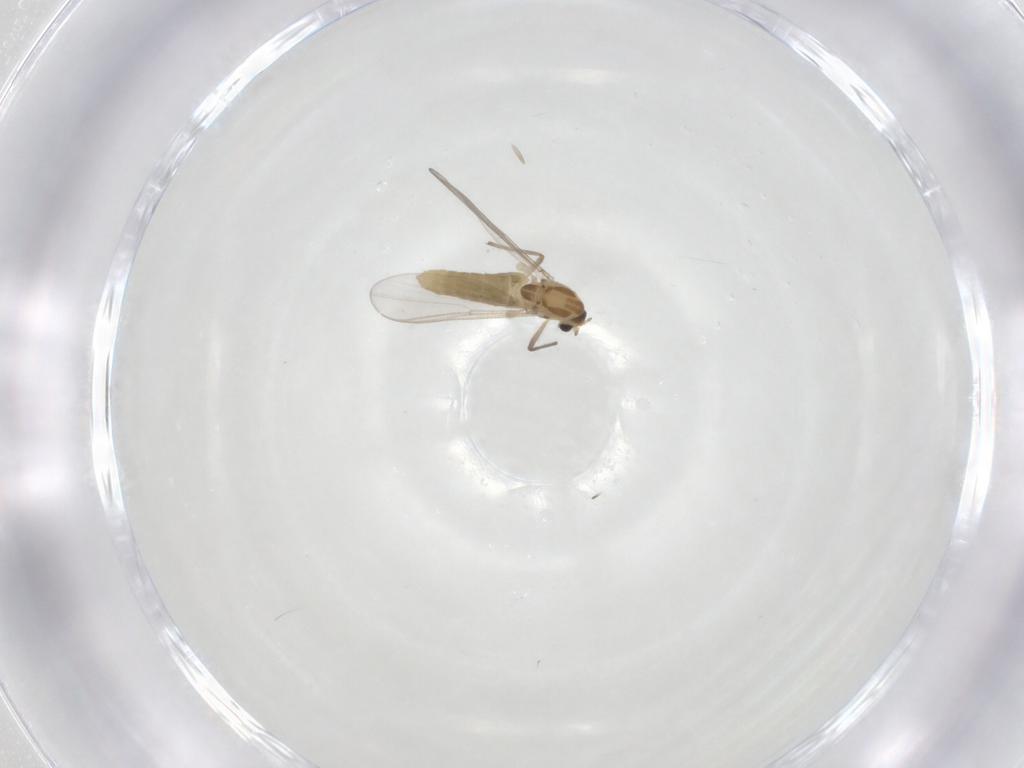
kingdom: Animalia
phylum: Arthropoda
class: Insecta
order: Diptera
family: Chironomidae
